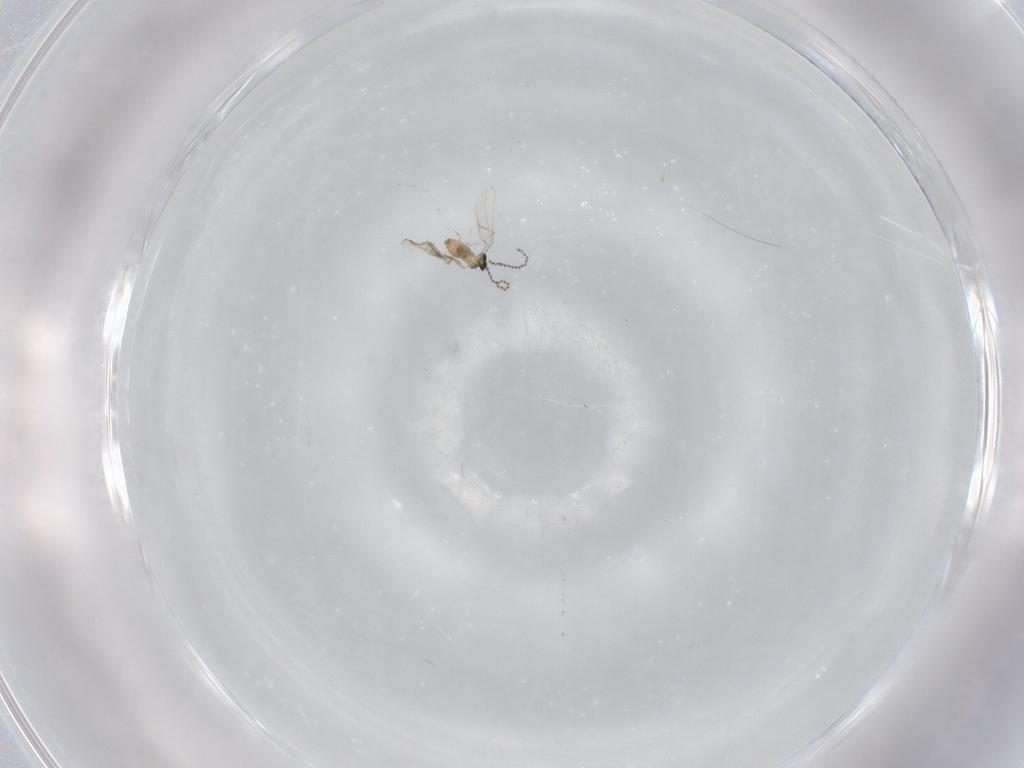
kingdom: Animalia
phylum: Arthropoda
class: Insecta
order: Diptera
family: Cecidomyiidae
